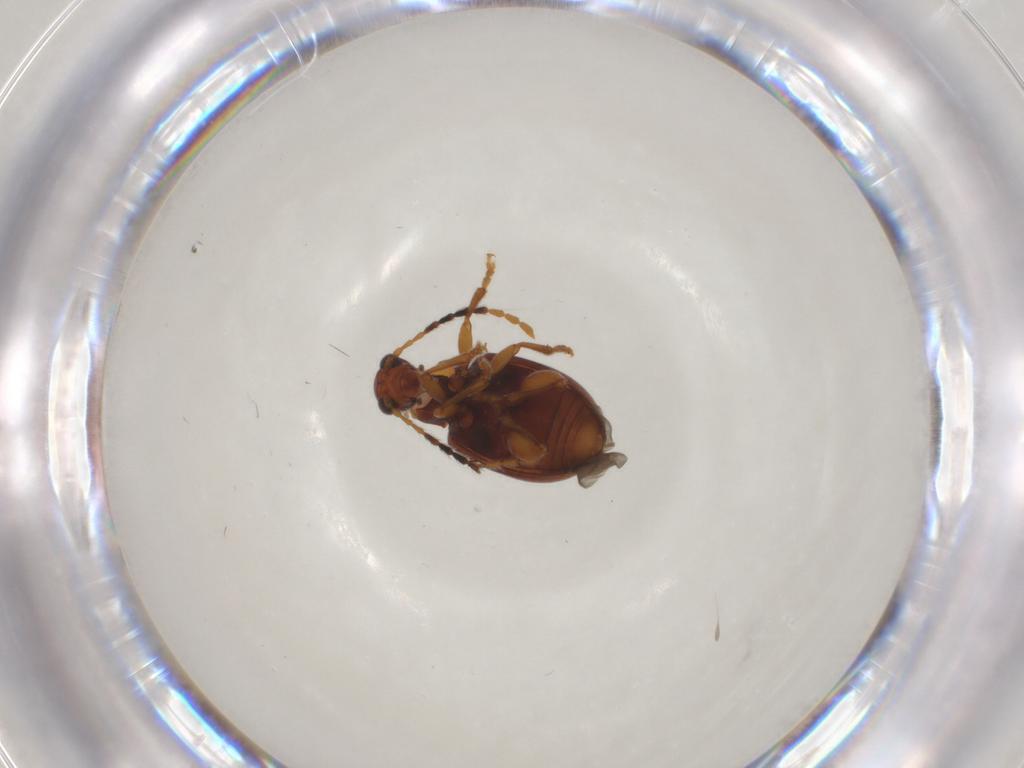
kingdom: Animalia
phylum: Arthropoda
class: Insecta
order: Coleoptera
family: Chrysomelidae
